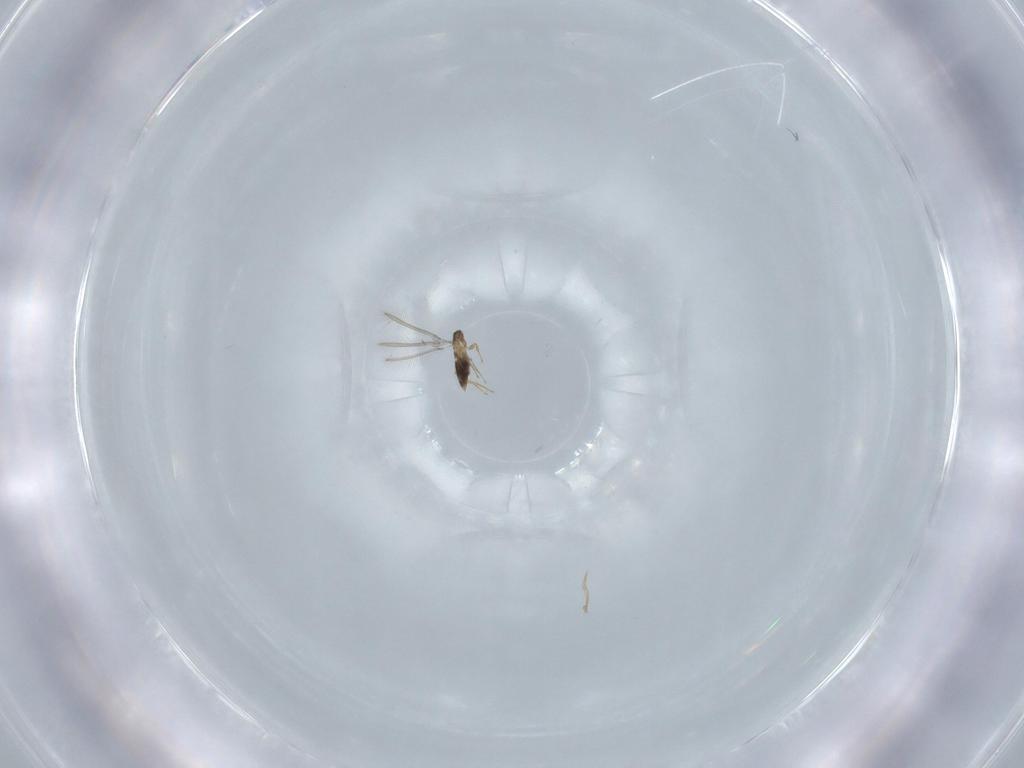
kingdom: Animalia
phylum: Arthropoda
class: Insecta
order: Hymenoptera
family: Mymaridae
